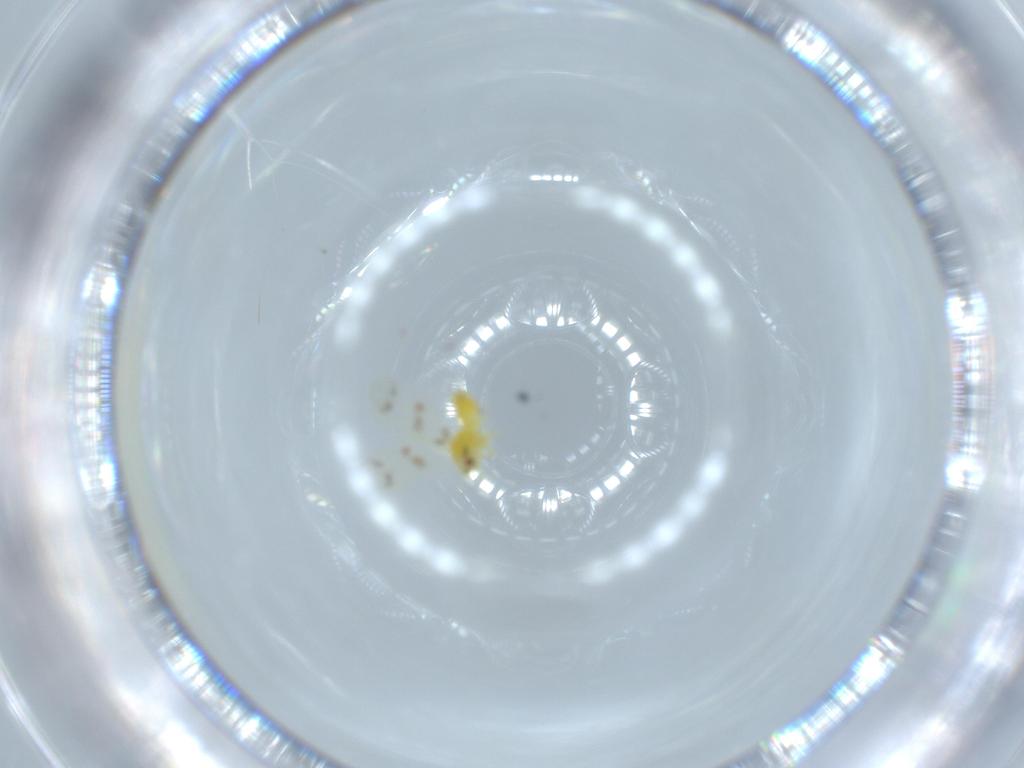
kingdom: Animalia
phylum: Arthropoda
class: Insecta
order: Hemiptera
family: Aleyrodidae
